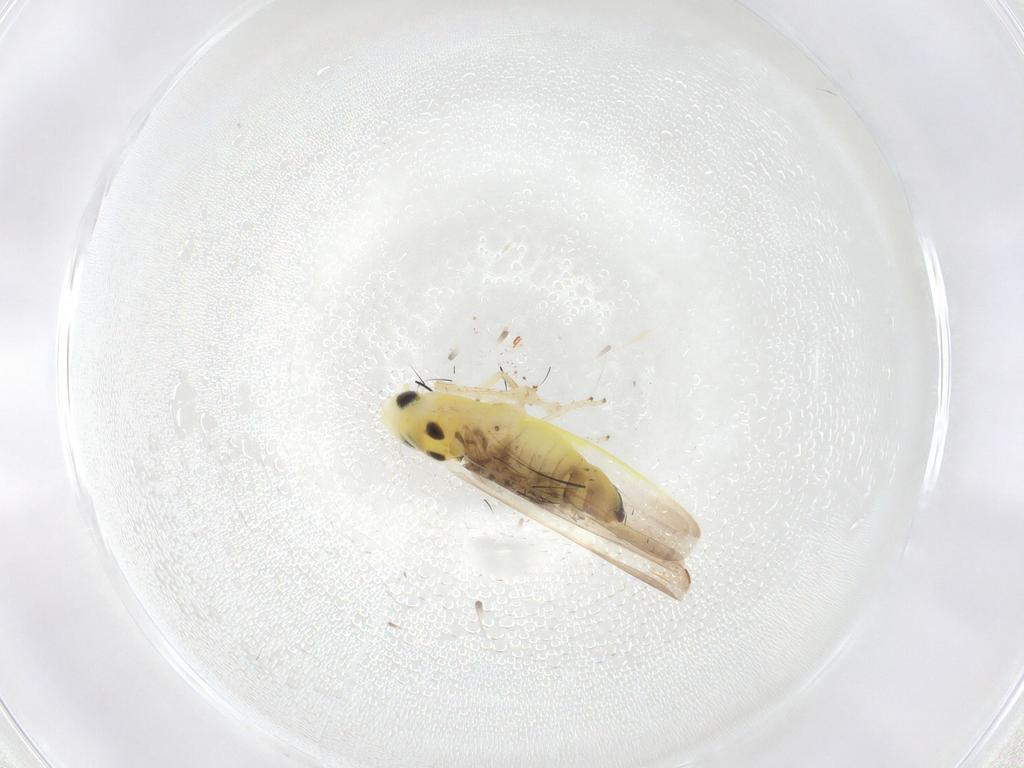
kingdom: Animalia
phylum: Arthropoda
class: Insecta
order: Hemiptera
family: Cicadellidae
